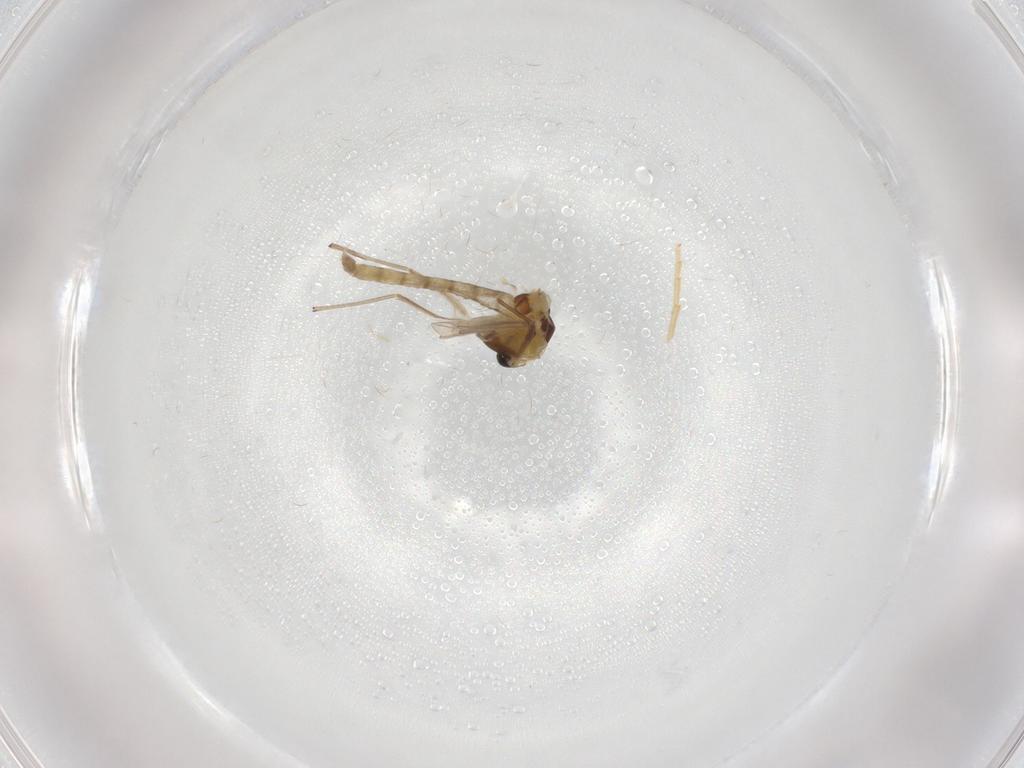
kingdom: Animalia
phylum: Arthropoda
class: Insecta
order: Diptera
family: Chironomidae
